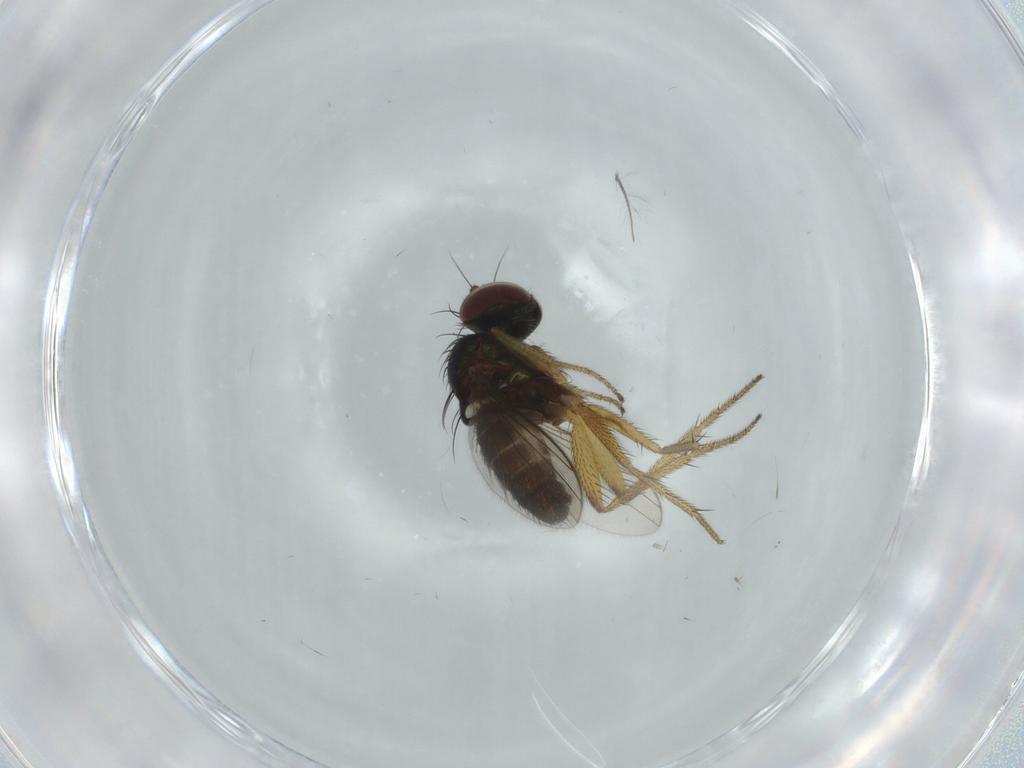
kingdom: Animalia
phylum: Arthropoda
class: Insecta
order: Diptera
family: Dolichopodidae
